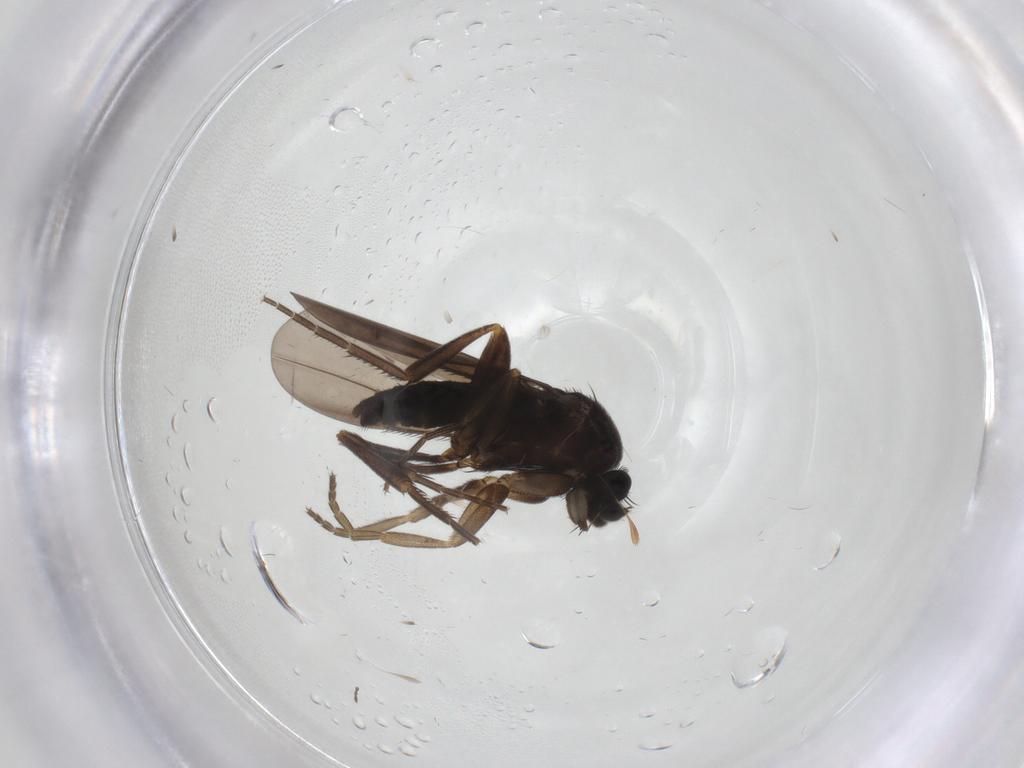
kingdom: Animalia
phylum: Arthropoda
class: Insecta
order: Diptera
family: Phoridae
